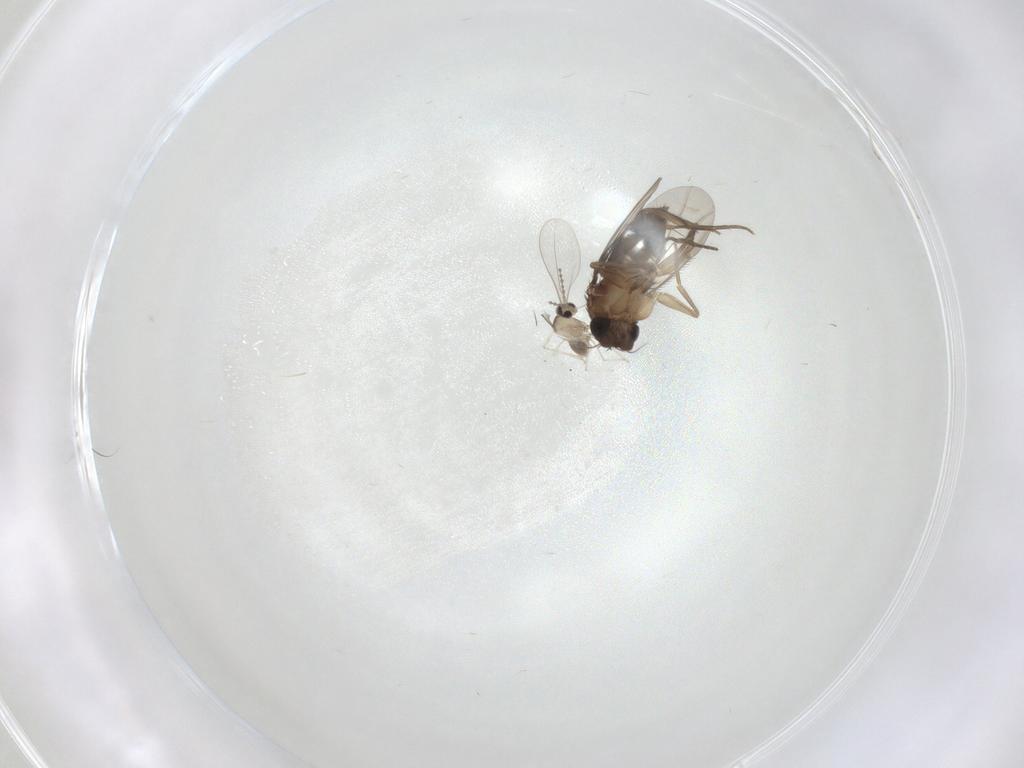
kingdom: Animalia
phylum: Arthropoda
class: Insecta
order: Diptera
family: Cecidomyiidae
